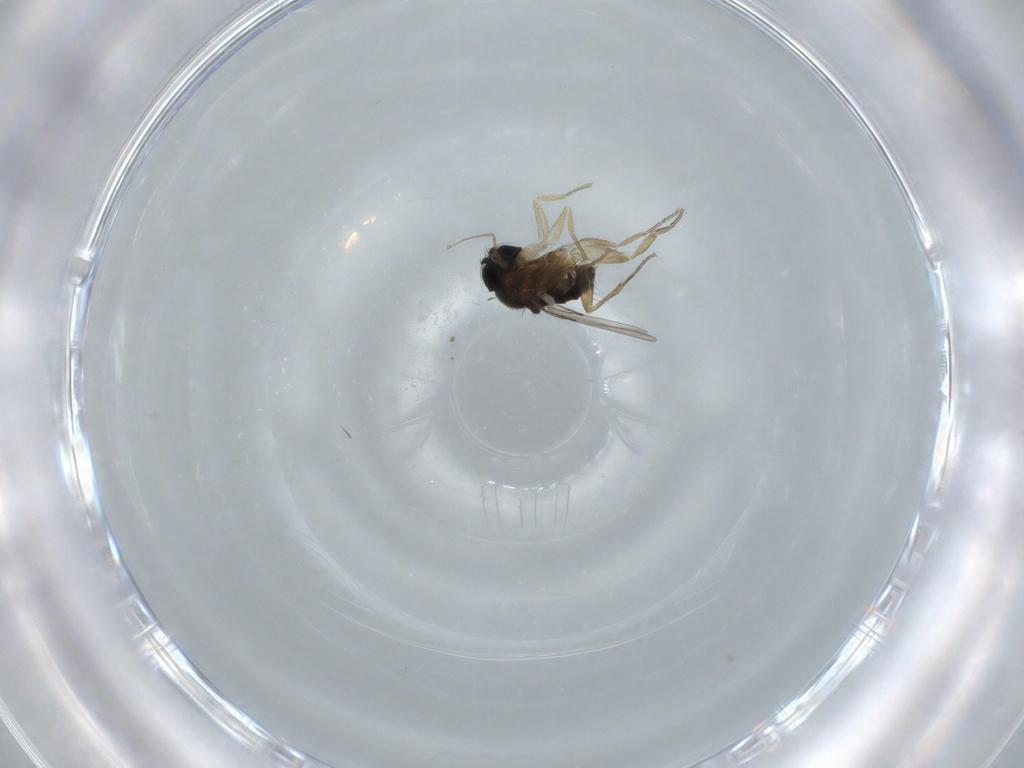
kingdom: Animalia
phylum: Arthropoda
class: Insecta
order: Diptera
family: Phoridae
